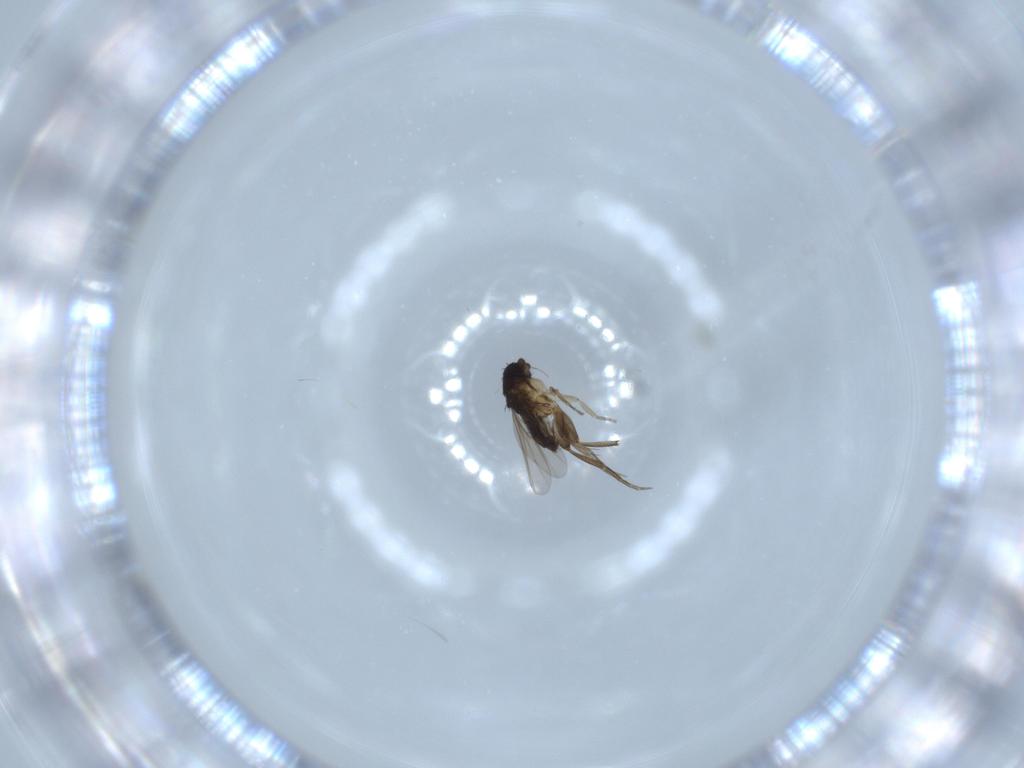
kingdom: Animalia
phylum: Arthropoda
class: Insecta
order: Diptera
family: Phoridae
